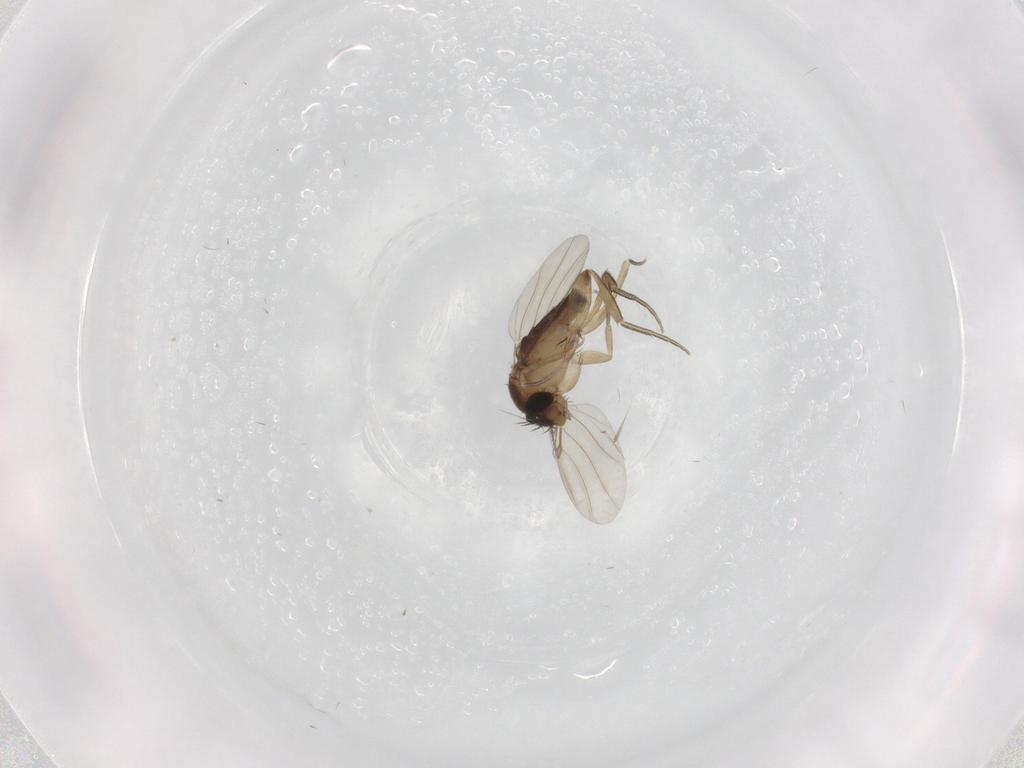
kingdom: Animalia
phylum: Arthropoda
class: Insecta
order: Diptera
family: Phoridae
